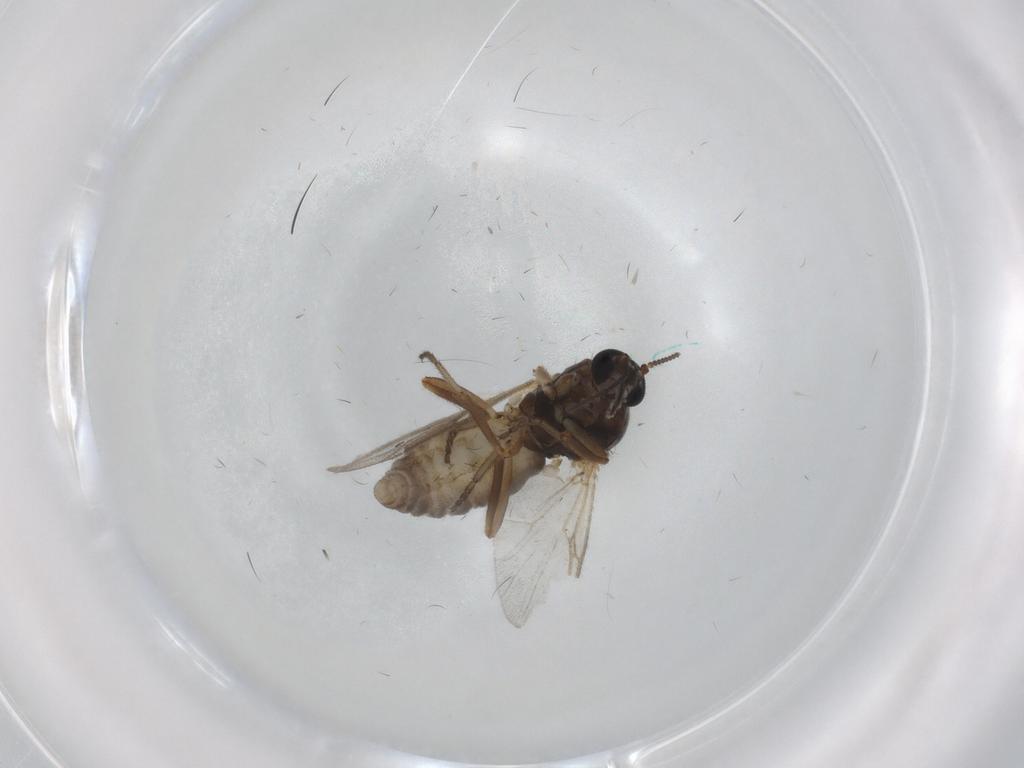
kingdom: Animalia
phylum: Arthropoda
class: Insecta
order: Diptera
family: Ceratopogonidae
